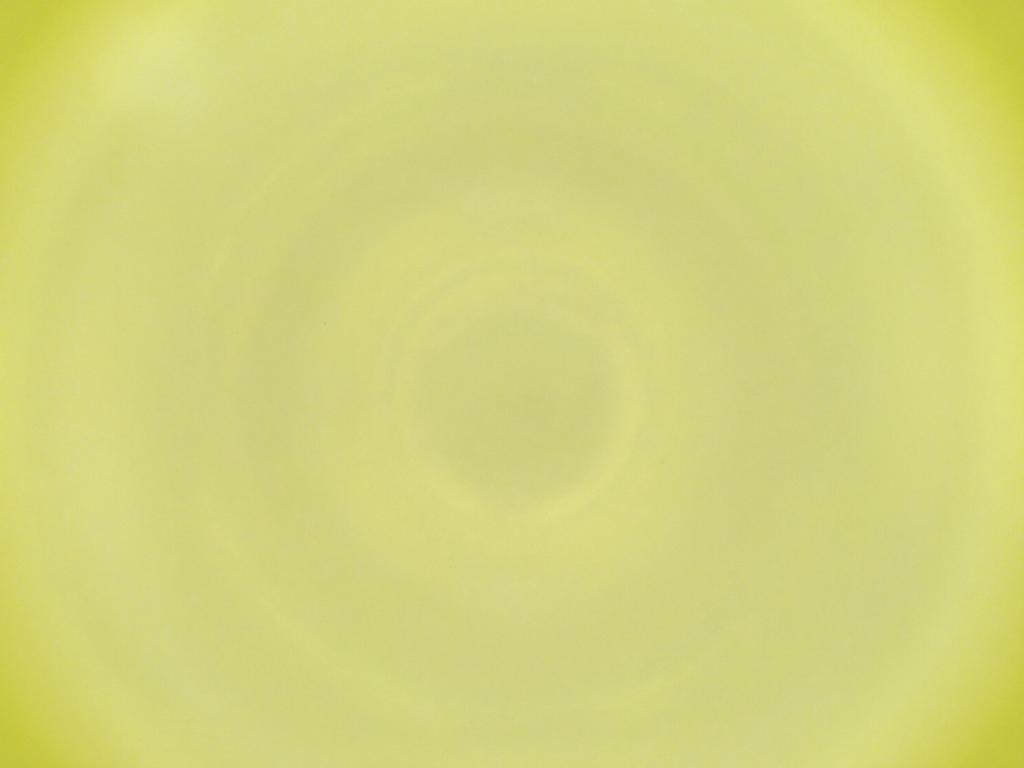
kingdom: Animalia
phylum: Arthropoda
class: Insecta
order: Diptera
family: Cecidomyiidae
